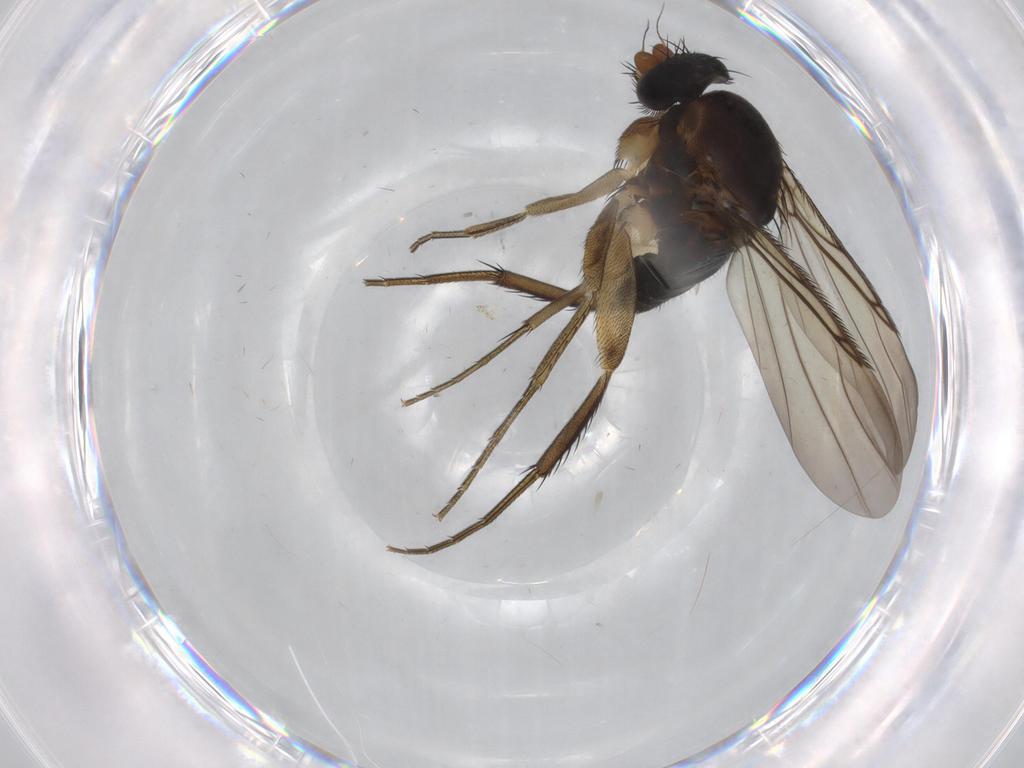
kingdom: Animalia
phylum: Arthropoda
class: Insecta
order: Diptera
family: Phoridae
